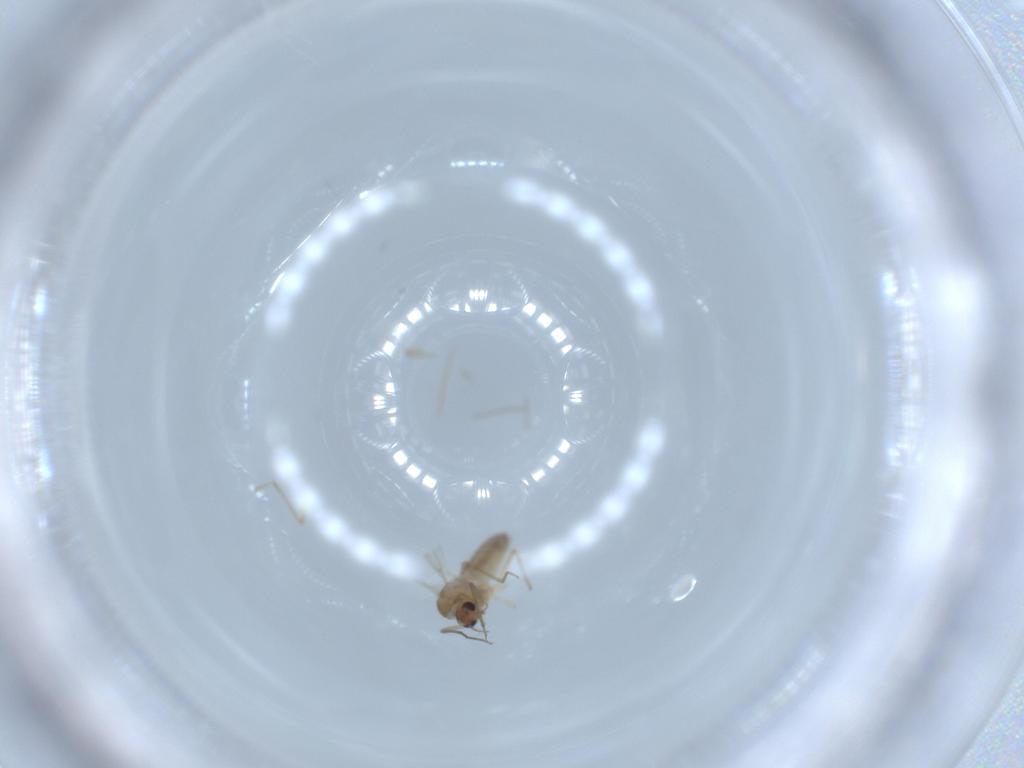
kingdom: Animalia
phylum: Arthropoda
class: Insecta
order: Diptera
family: Chironomidae
